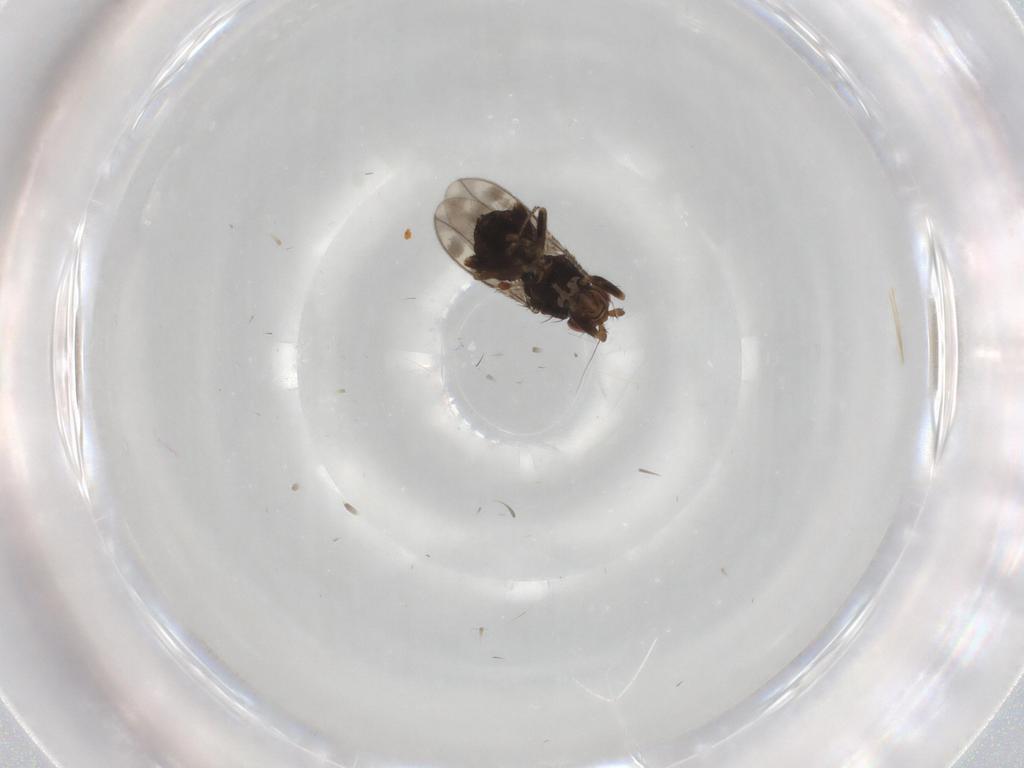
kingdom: Animalia
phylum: Arthropoda
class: Insecta
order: Diptera
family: Sphaeroceridae
